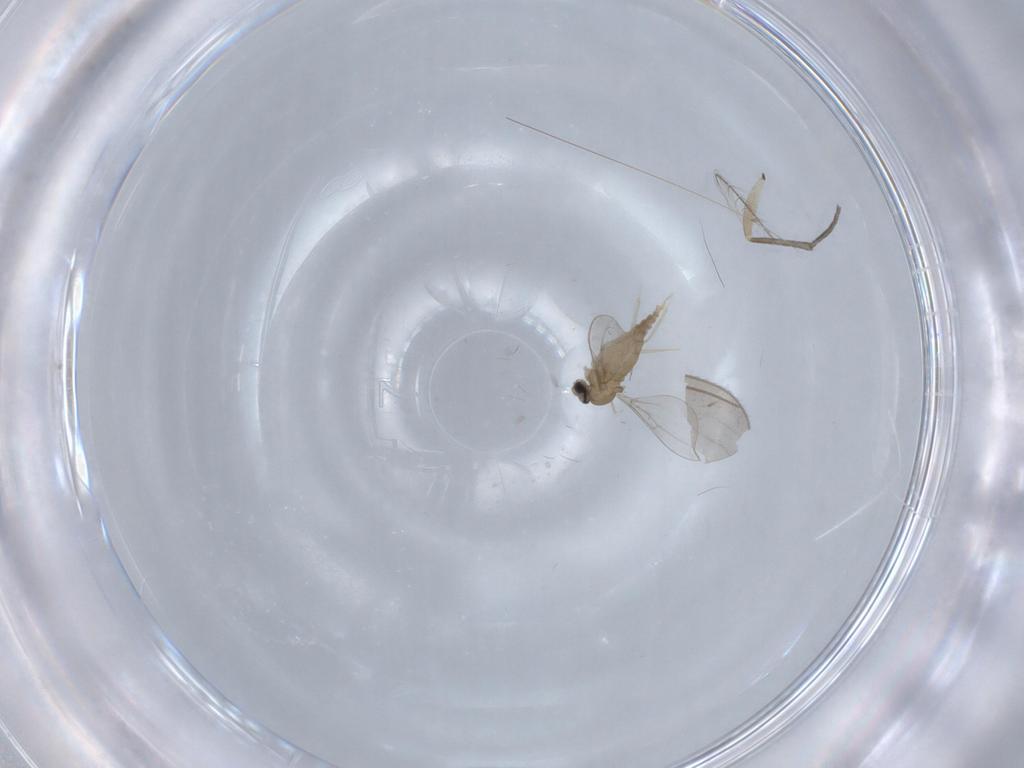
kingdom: Animalia
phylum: Arthropoda
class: Insecta
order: Diptera
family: Cecidomyiidae
